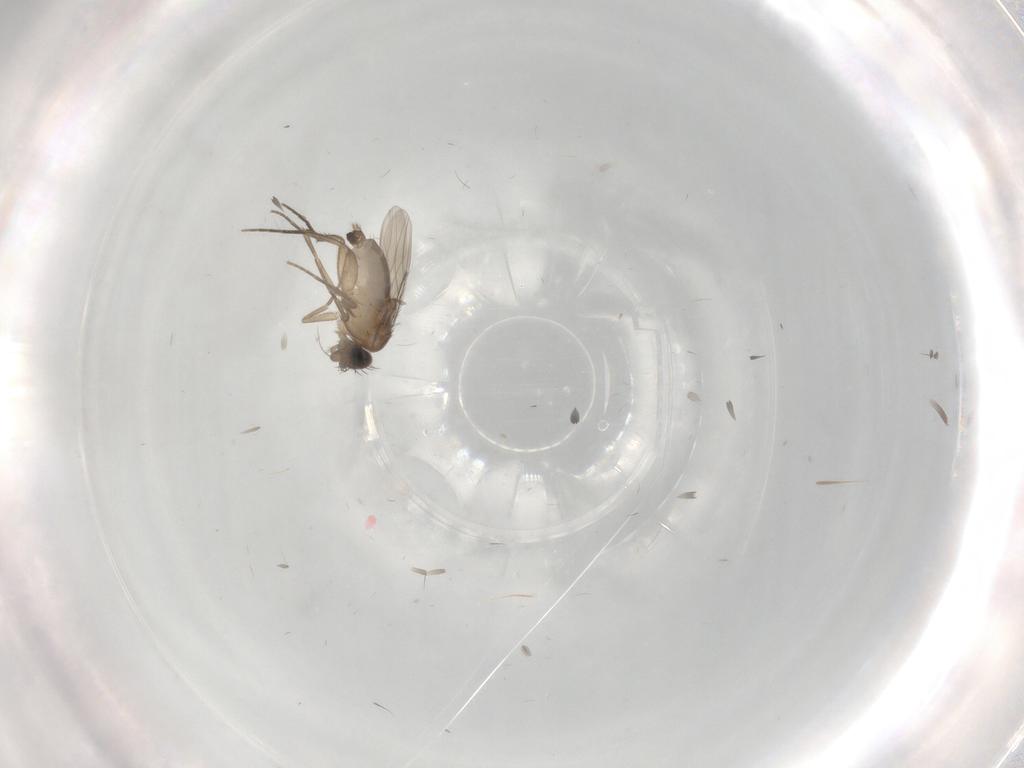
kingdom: Animalia
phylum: Arthropoda
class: Insecta
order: Diptera
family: Phoridae
